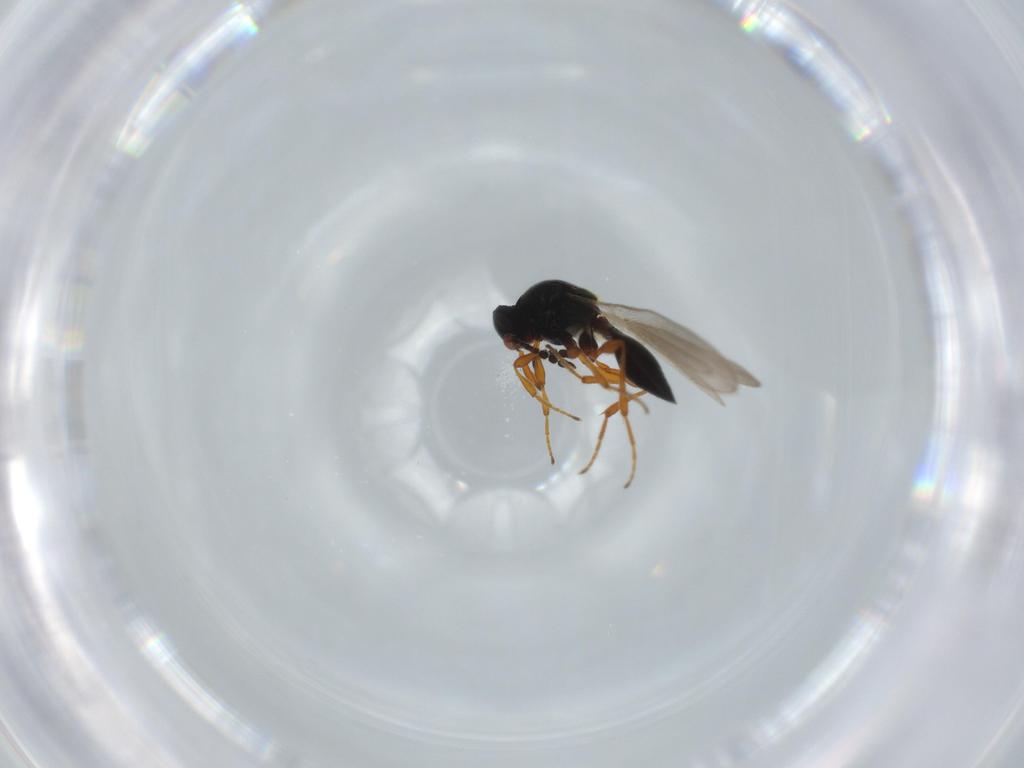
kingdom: Animalia
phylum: Arthropoda
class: Insecta
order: Hymenoptera
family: Platygastridae
